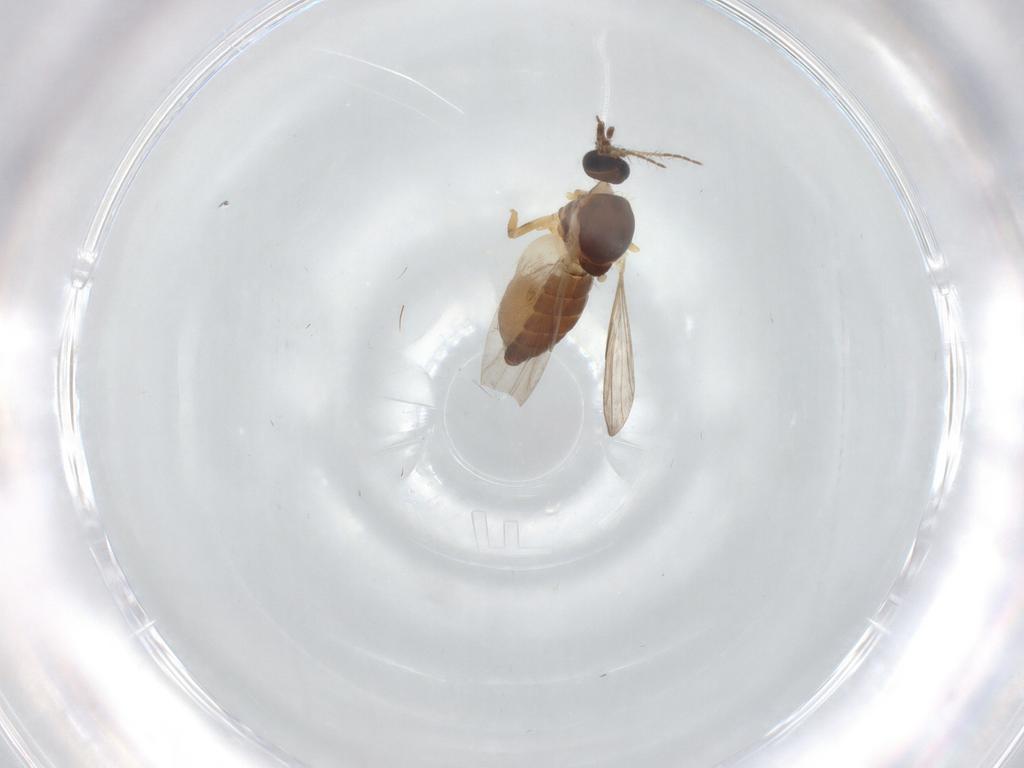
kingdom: Animalia
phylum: Arthropoda
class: Insecta
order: Diptera
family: Ceratopogonidae
